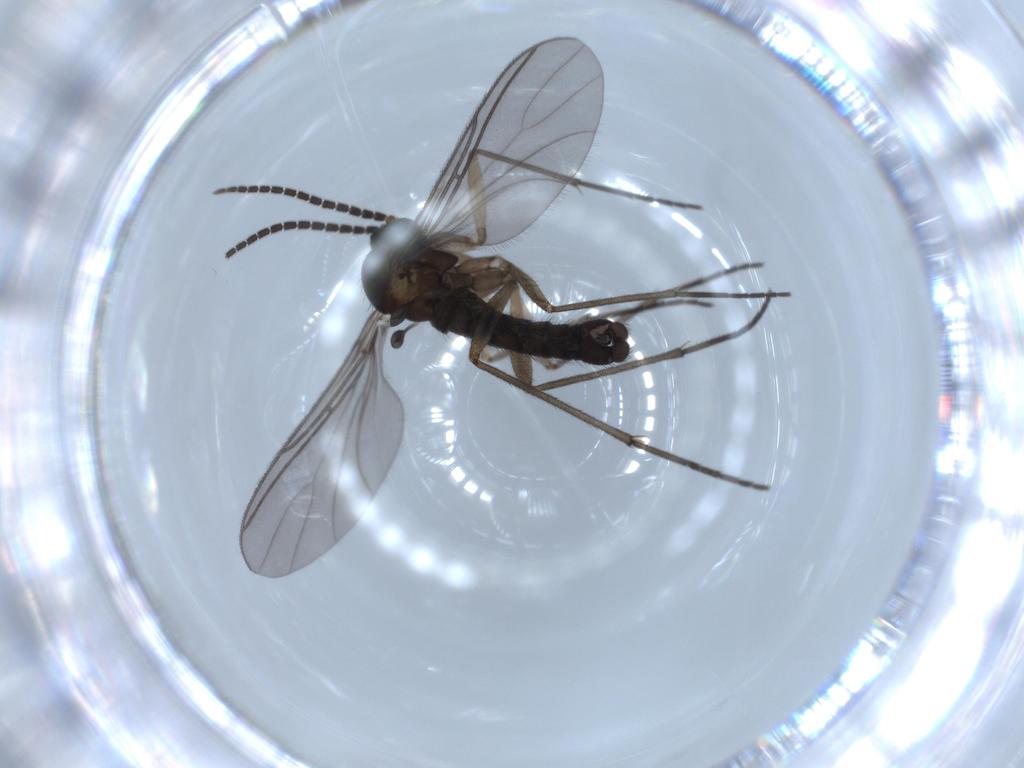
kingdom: Animalia
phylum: Arthropoda
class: Insecta
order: Diptera
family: Sciaridae
